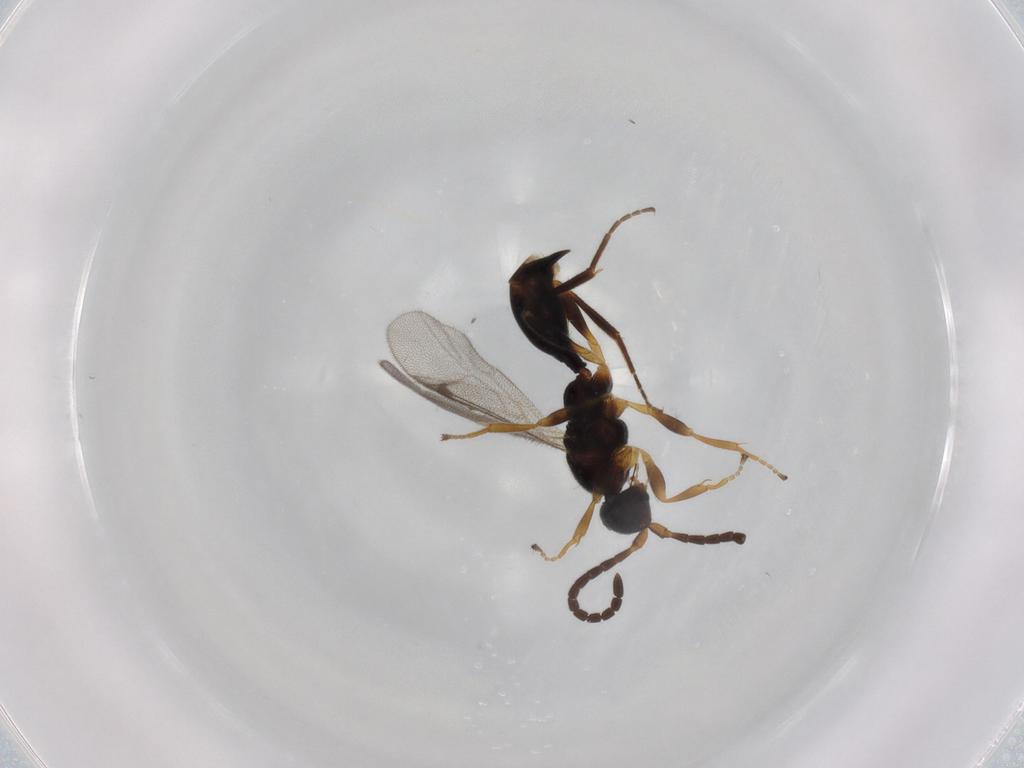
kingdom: Animalia
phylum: Arthropoda
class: Insecta
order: Hymenoptera
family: Proctotrupidae
